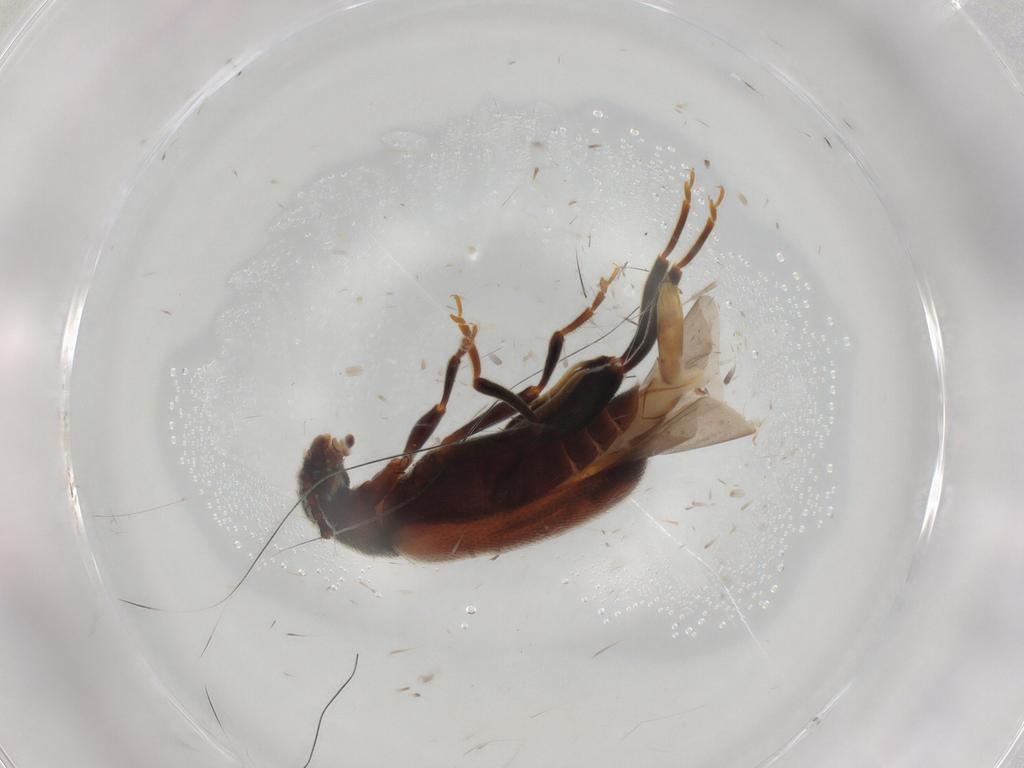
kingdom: Animalia
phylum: Arthropoda
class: Insecta
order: Coleoptera
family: Aderidae
